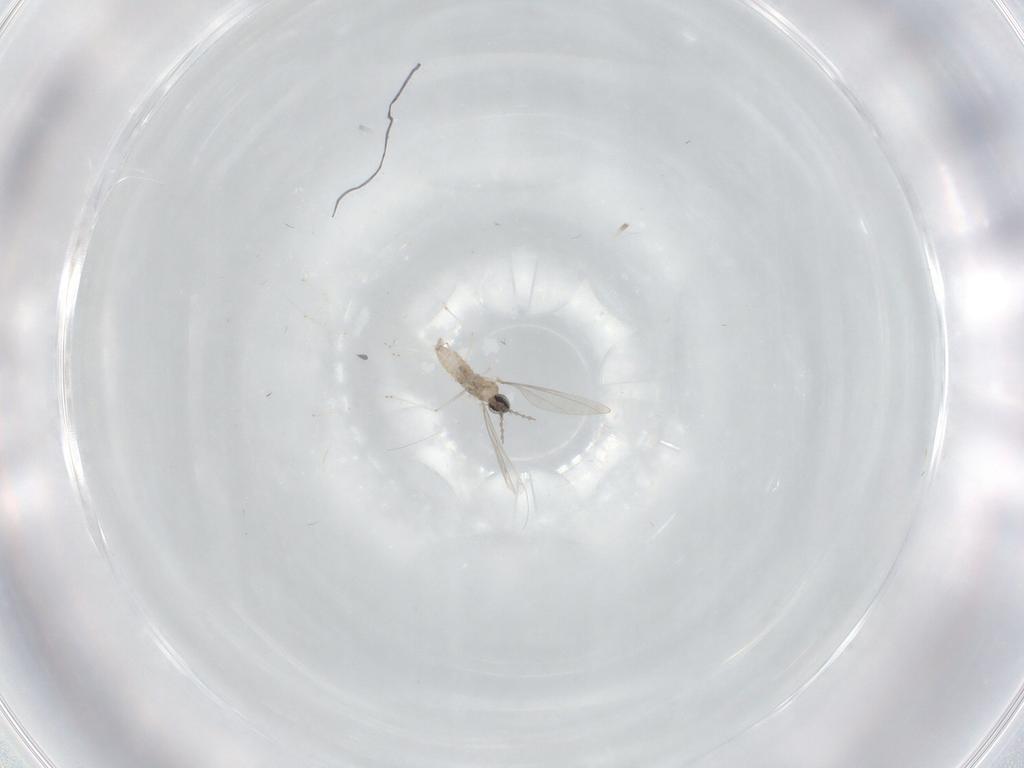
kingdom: Animalia
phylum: Arthropoda
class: Insecta
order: Diptera
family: Cecidomyiidae
